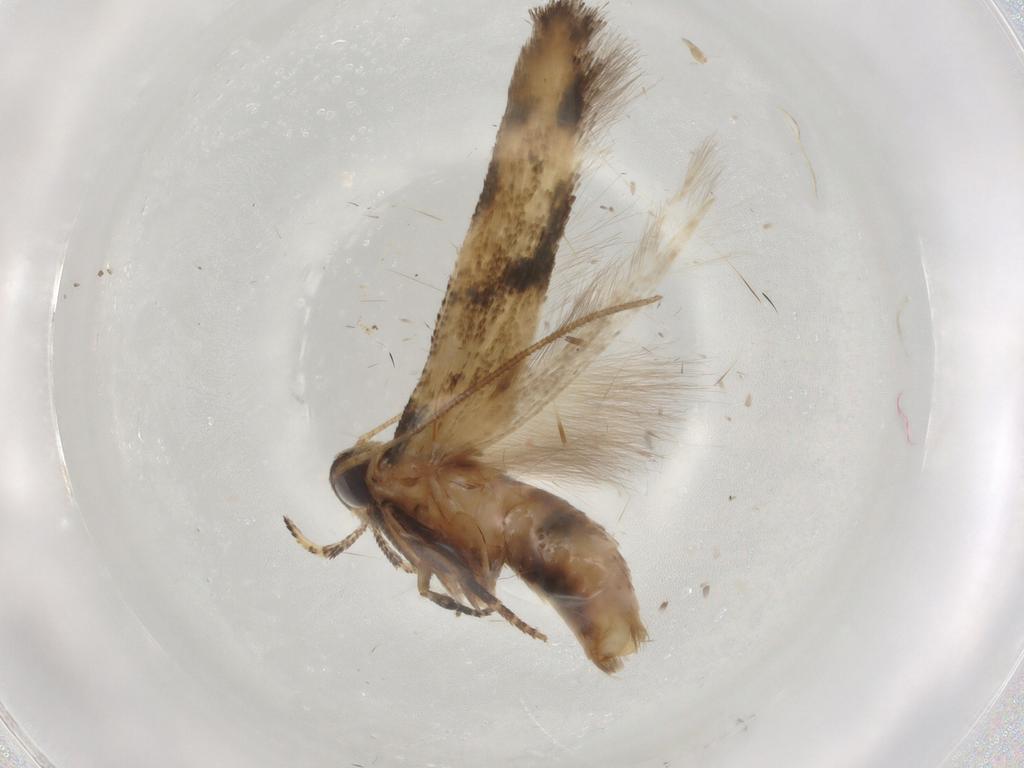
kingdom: Animalia
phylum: Arthropoda
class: Insecta
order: Lepidoptera
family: Cosmopterigidae
